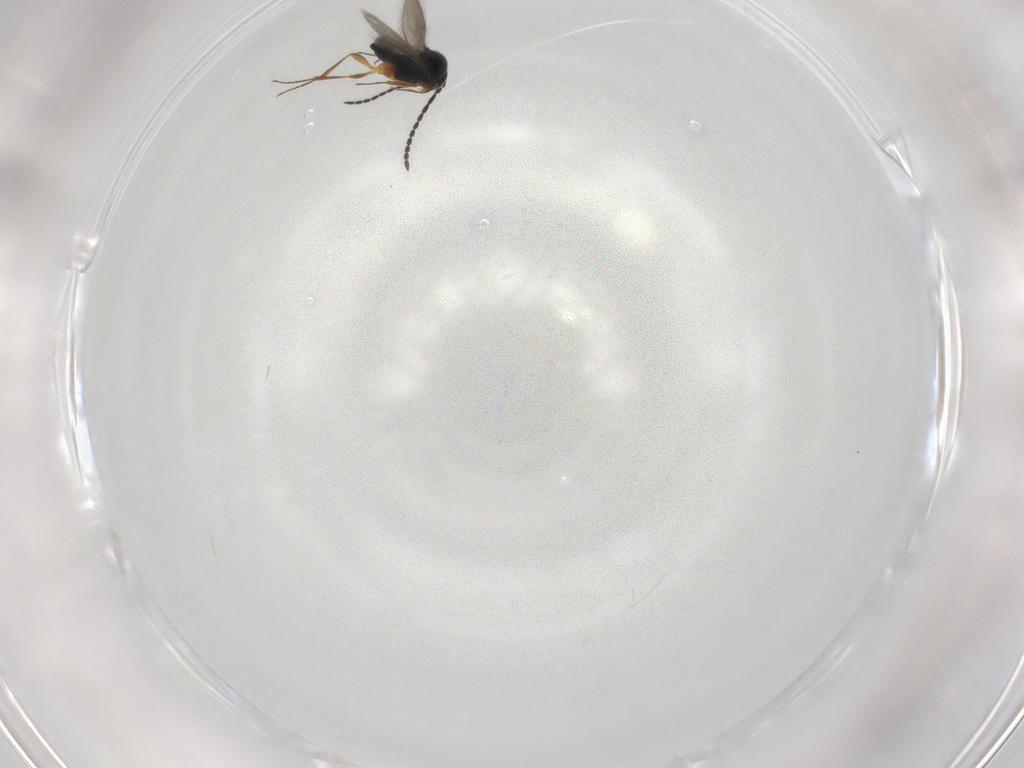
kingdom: Animalia
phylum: Arthropoda
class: Insecta
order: Hymenoptera
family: Scelionidae
